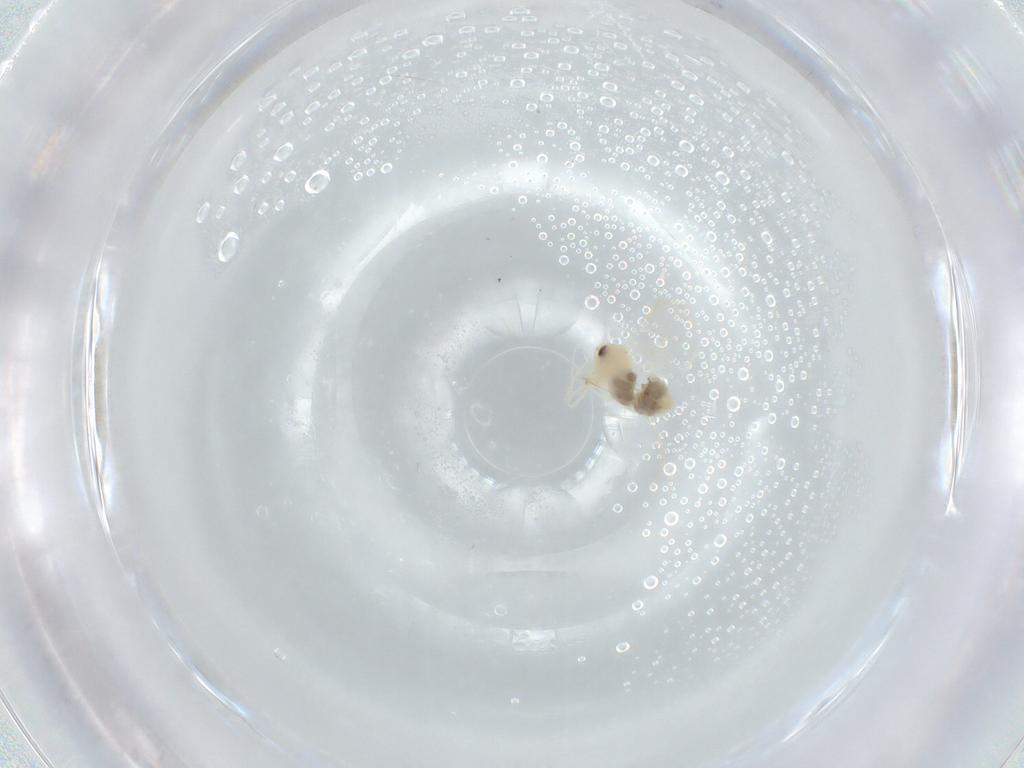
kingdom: Animalia
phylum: Arthropoda
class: Insecta
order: Hemiptera
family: Aleyrodidae
